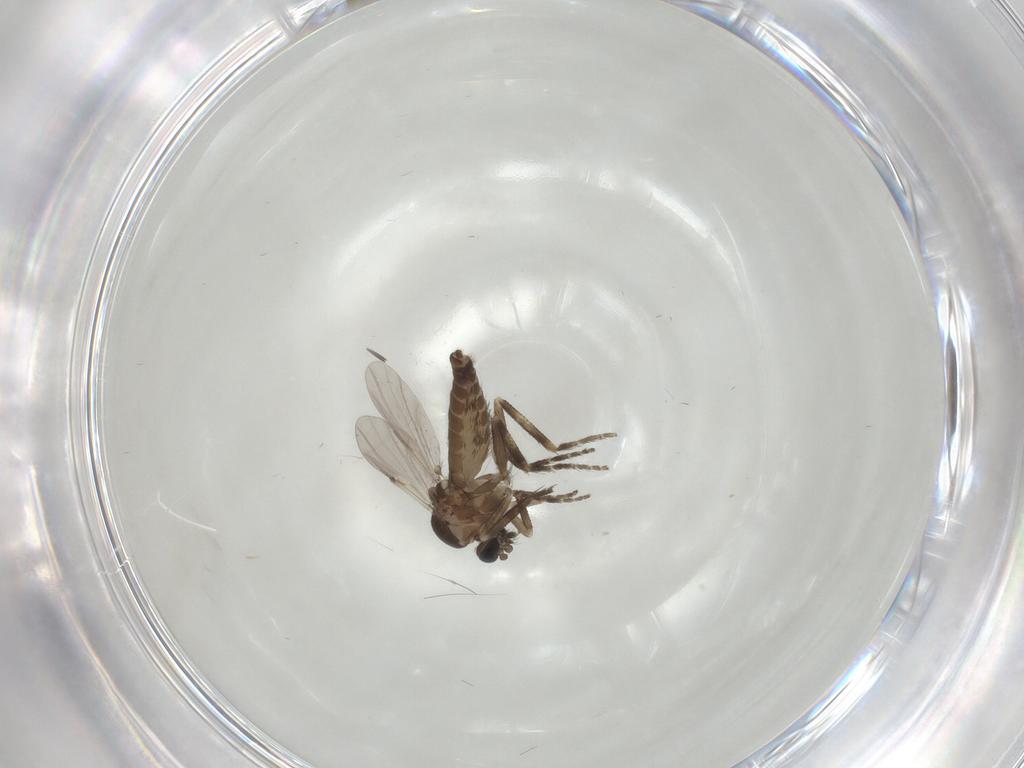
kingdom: Animalia
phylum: Arthropoda
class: Insecta
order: Diptera
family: Ceratopogonidae
